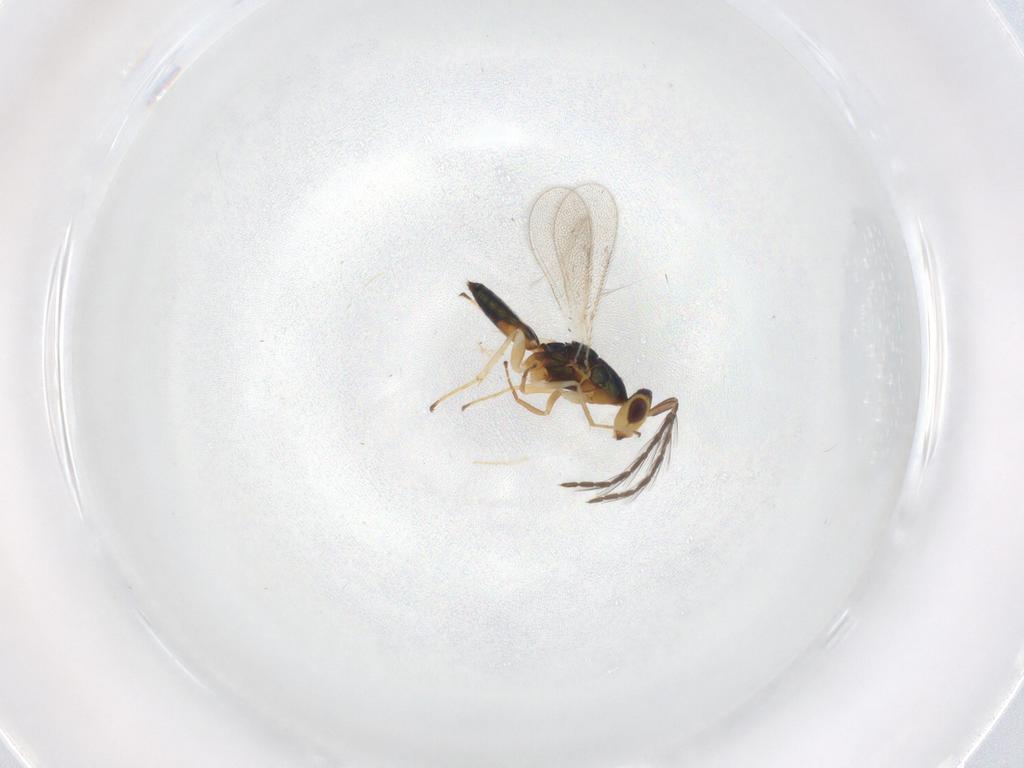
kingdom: Animalia
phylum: Arthropoda
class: Insecta
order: Hymenoptera
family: Eulophidae
